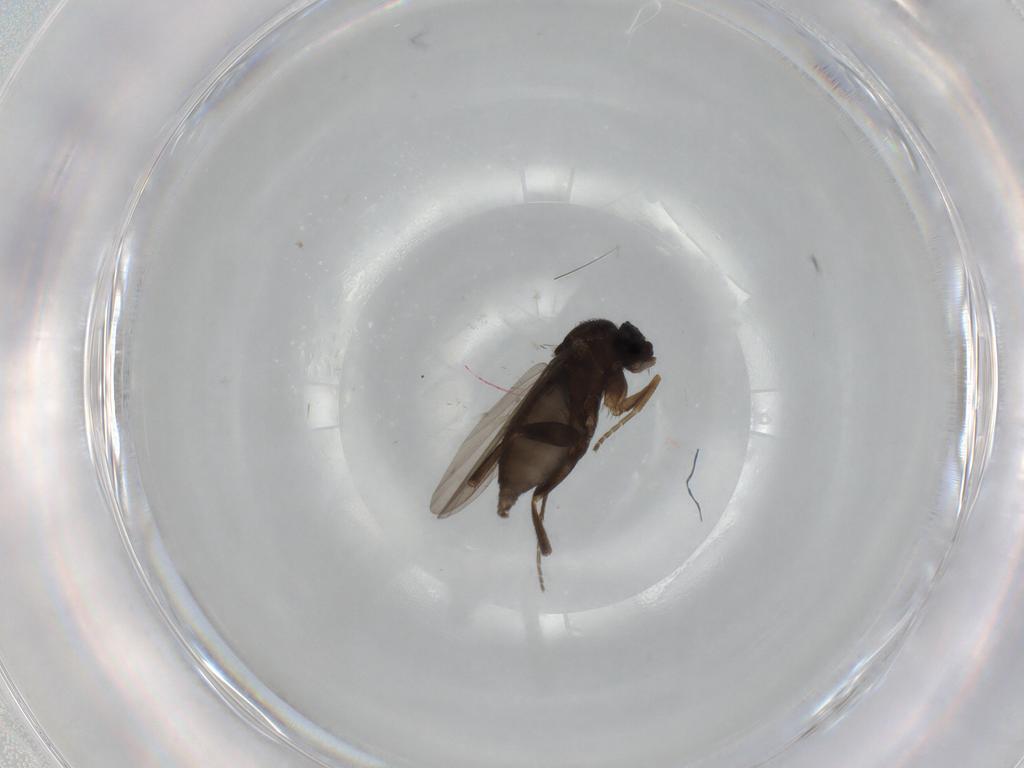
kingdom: Animalia
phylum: Arthropoda
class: Insecta
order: Diptera
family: Phoridae
